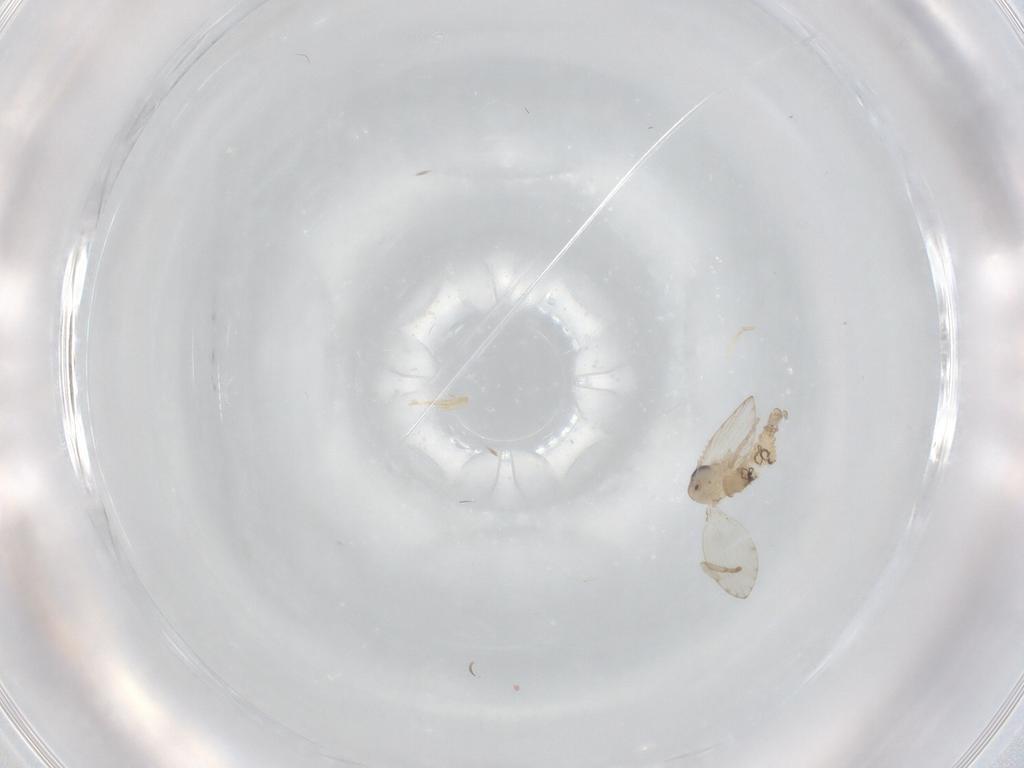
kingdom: Animalia
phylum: Arthropoda
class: Insecta
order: Diptera
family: Psychodidae
